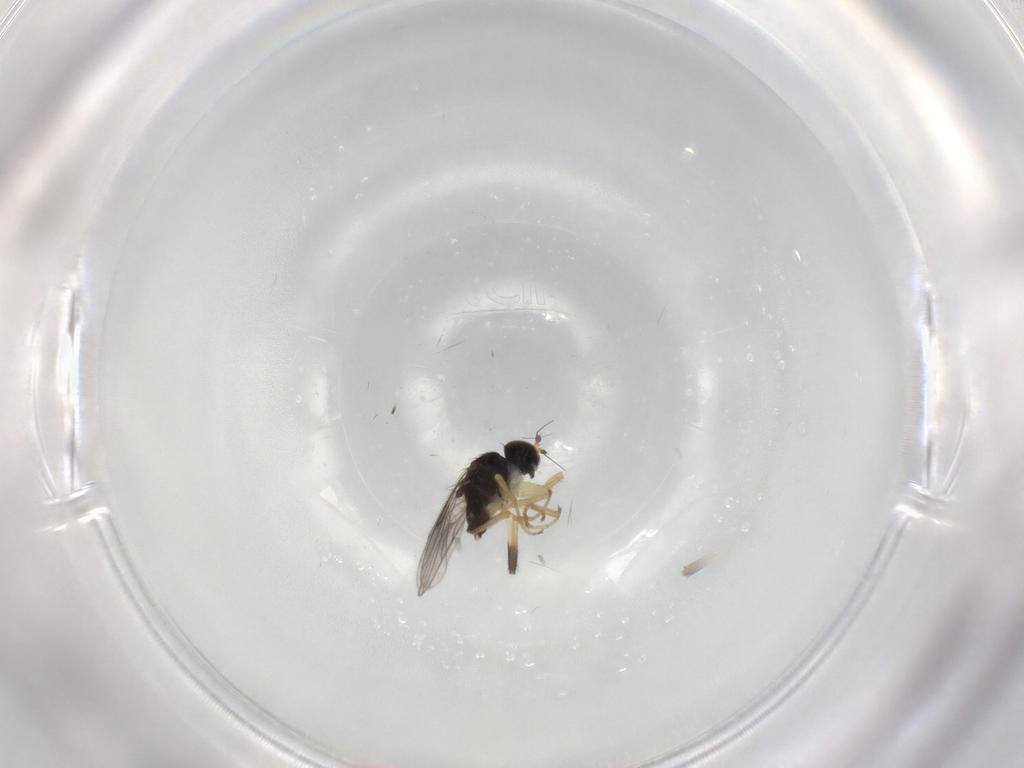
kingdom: Animalia
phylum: Arthropoda
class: Insecta
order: Diptera
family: Hybotidae
